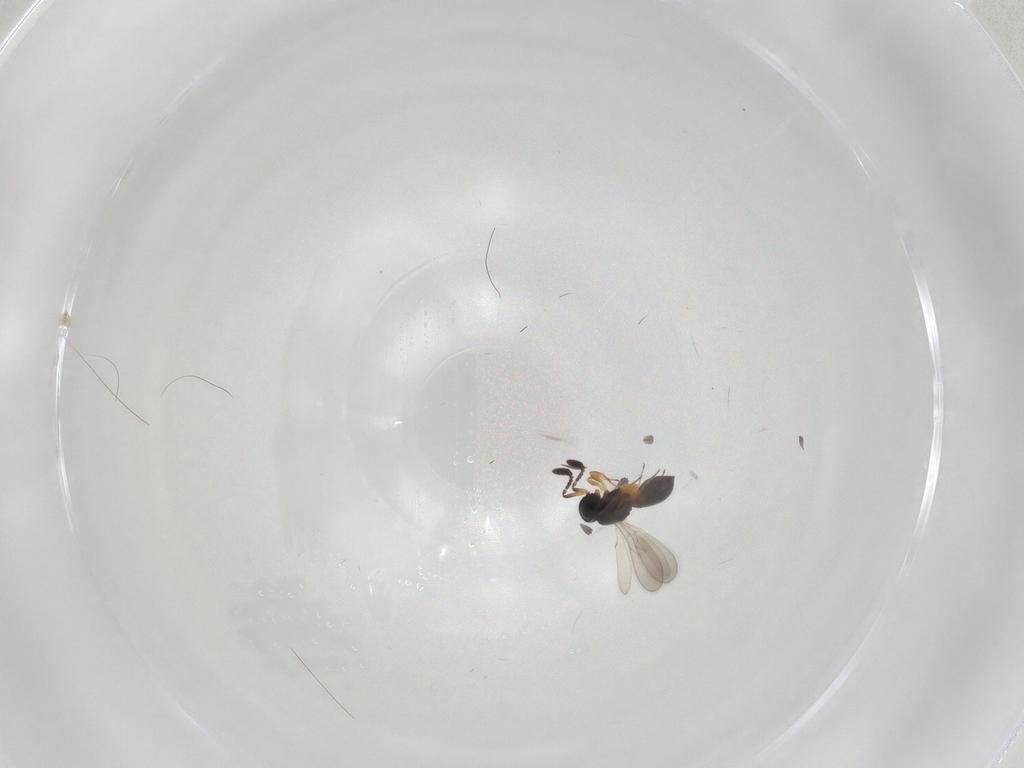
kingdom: Animalia
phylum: Arthropoda
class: Insecta
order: Hymenoptera
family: Scelionidae
